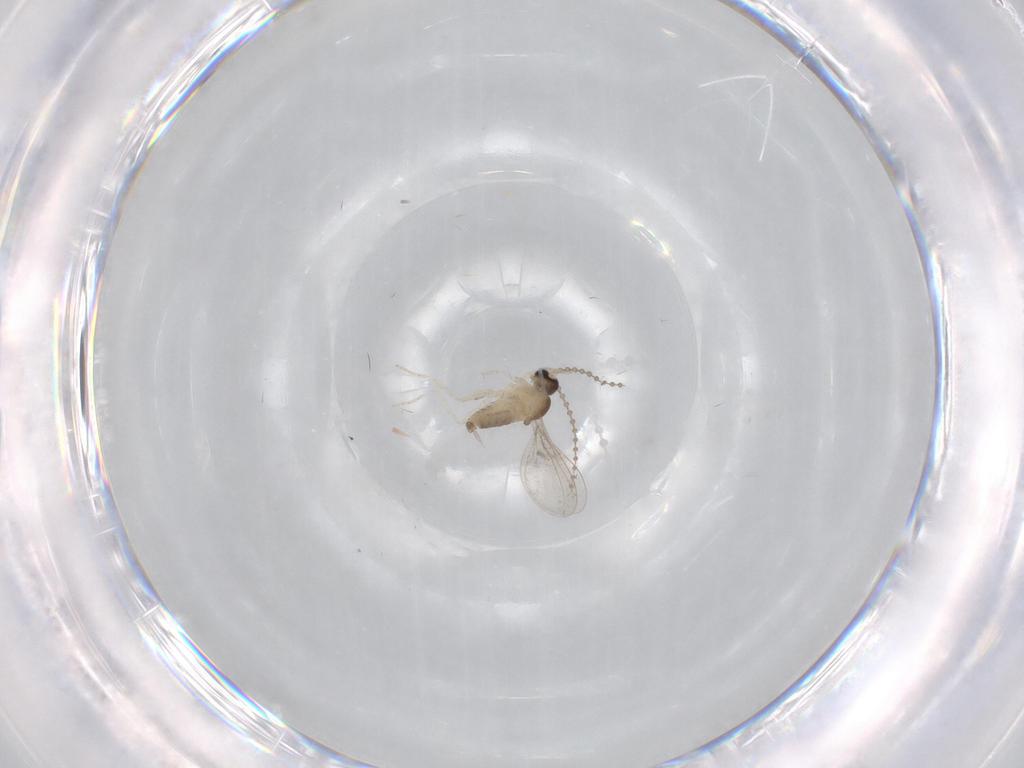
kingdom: Animalia
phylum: Arthropoda
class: Insecta
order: Diptera
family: Cecidomyiidae
